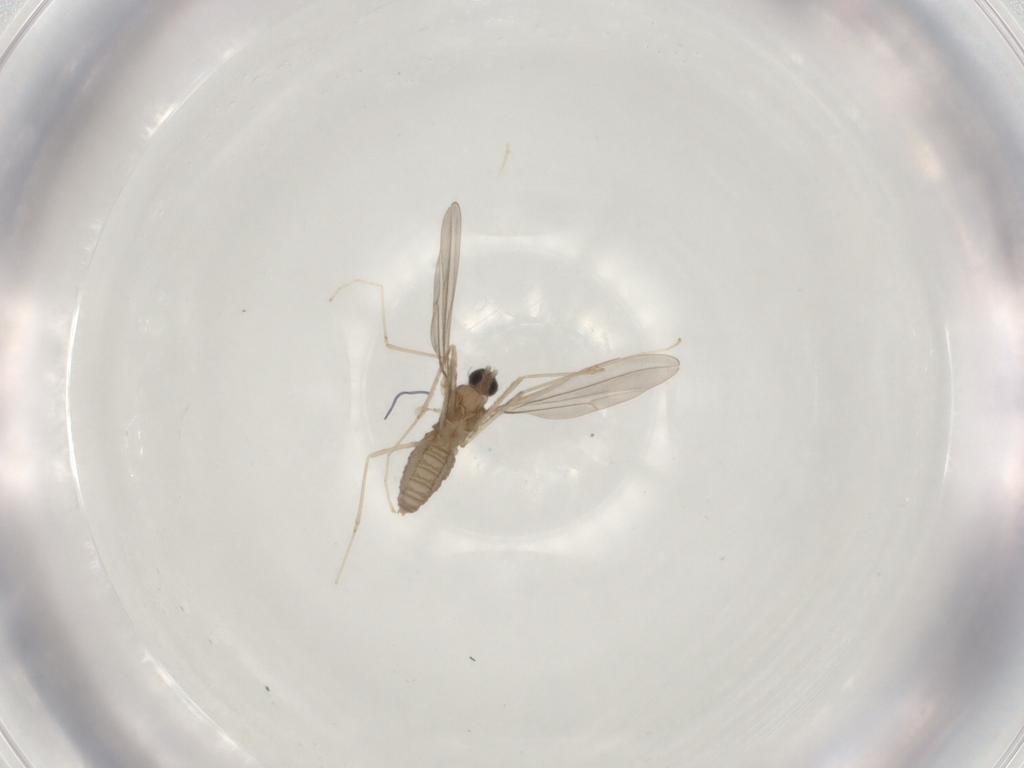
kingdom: Animalia
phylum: Arthropoda
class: Insecta
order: Diptera
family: Cecidomyiidae
